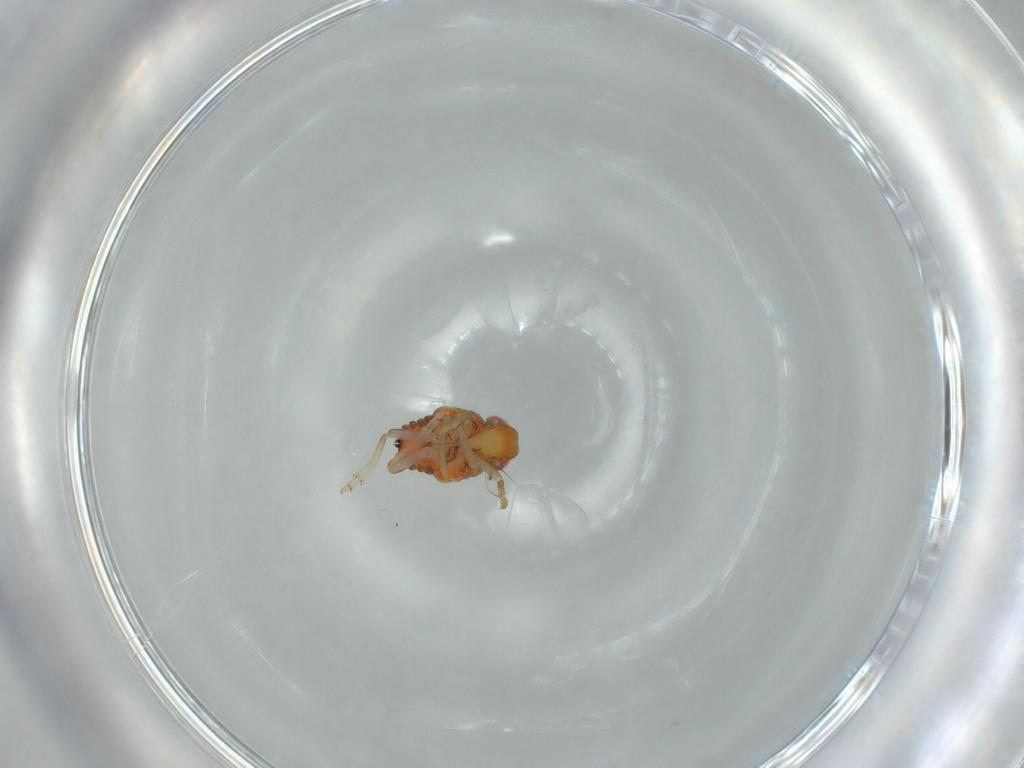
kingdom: Animalia
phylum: Arthropoda
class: Insecta
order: Hemiptera
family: Issidae
